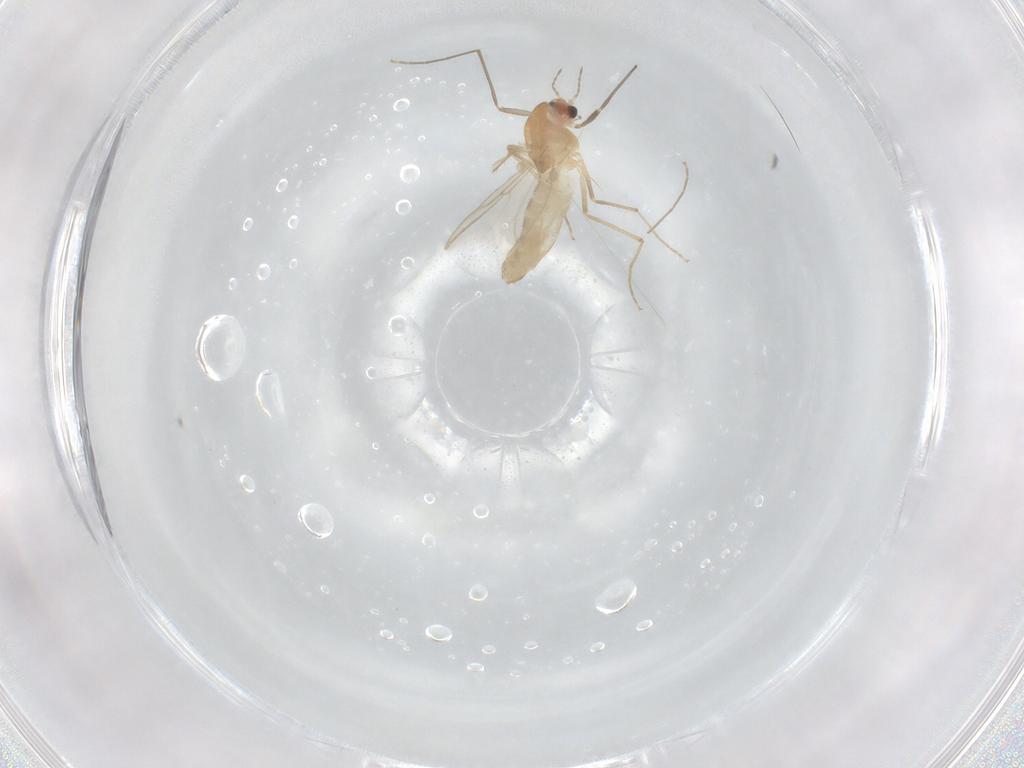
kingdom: Animalia
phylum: Arthropoda
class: Insecta
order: Diptera
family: Chironomidae
